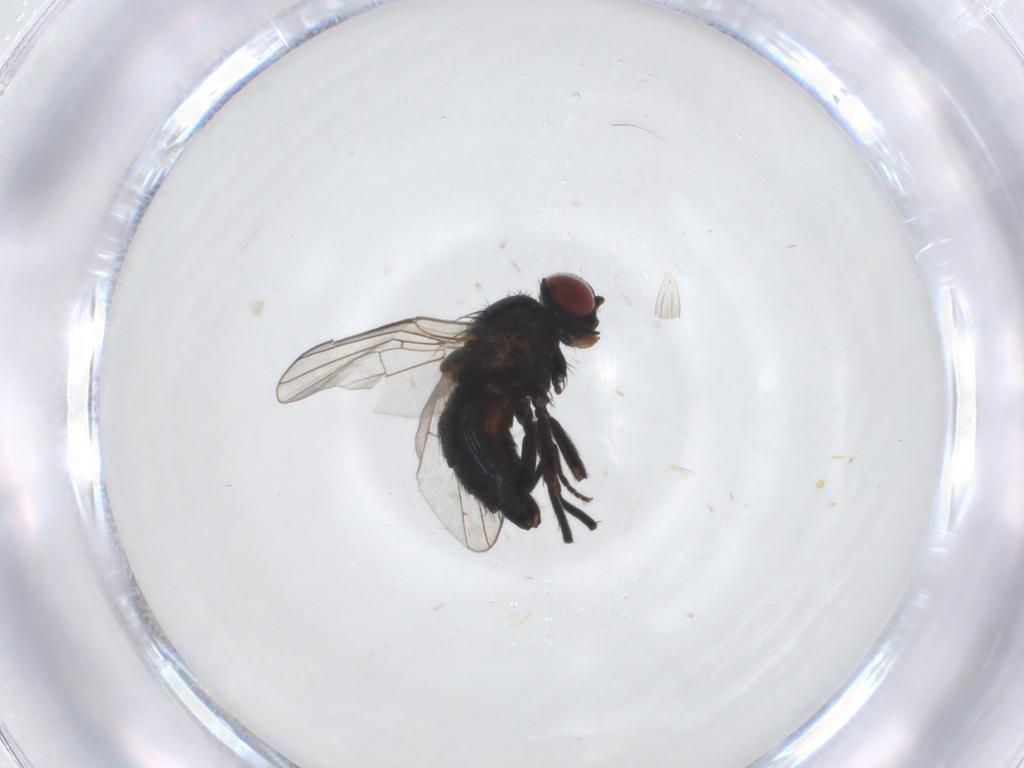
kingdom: Animalia
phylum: Arthropoda
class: Insecta
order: Diptera
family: Agromyzidae
